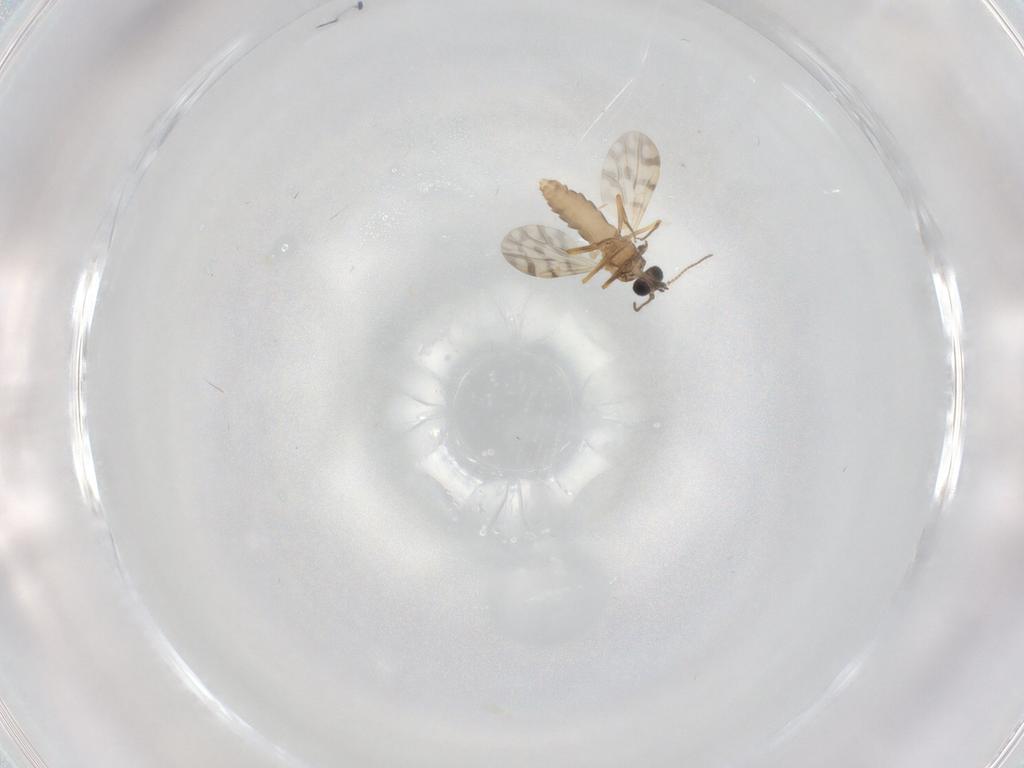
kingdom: Animalia
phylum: Arthropoda
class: Insecta
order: Diptera
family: Ceratopogonidae
